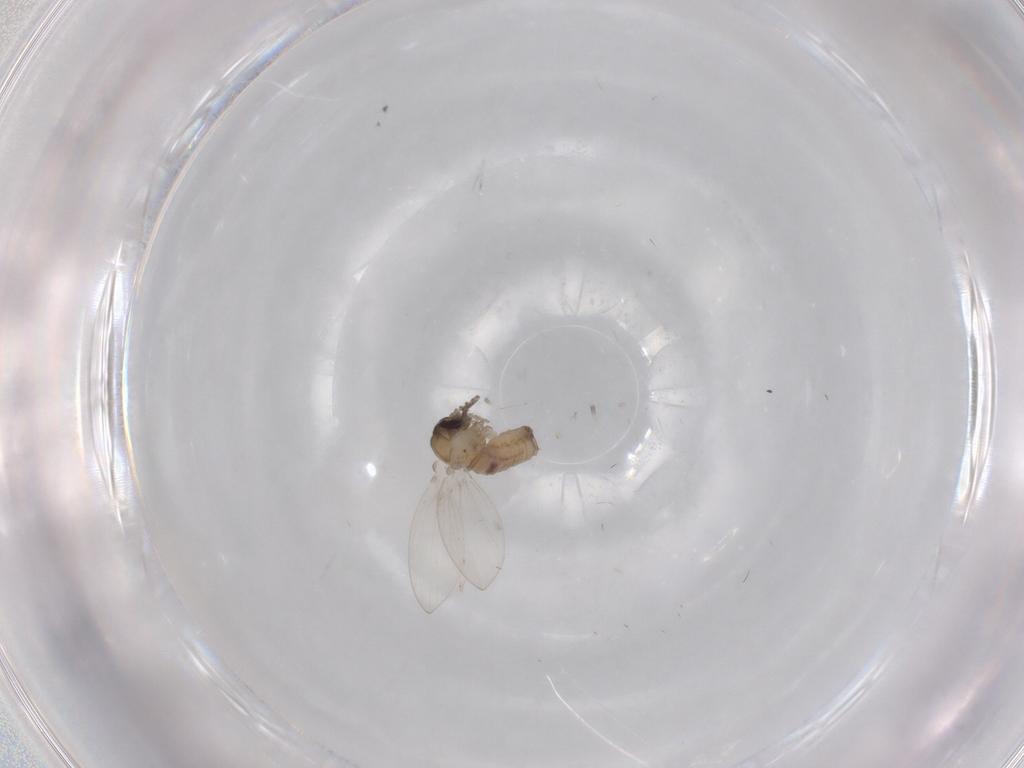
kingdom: Animalia
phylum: Arthropoda
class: Insecta
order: Diptera
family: Psychodidae
